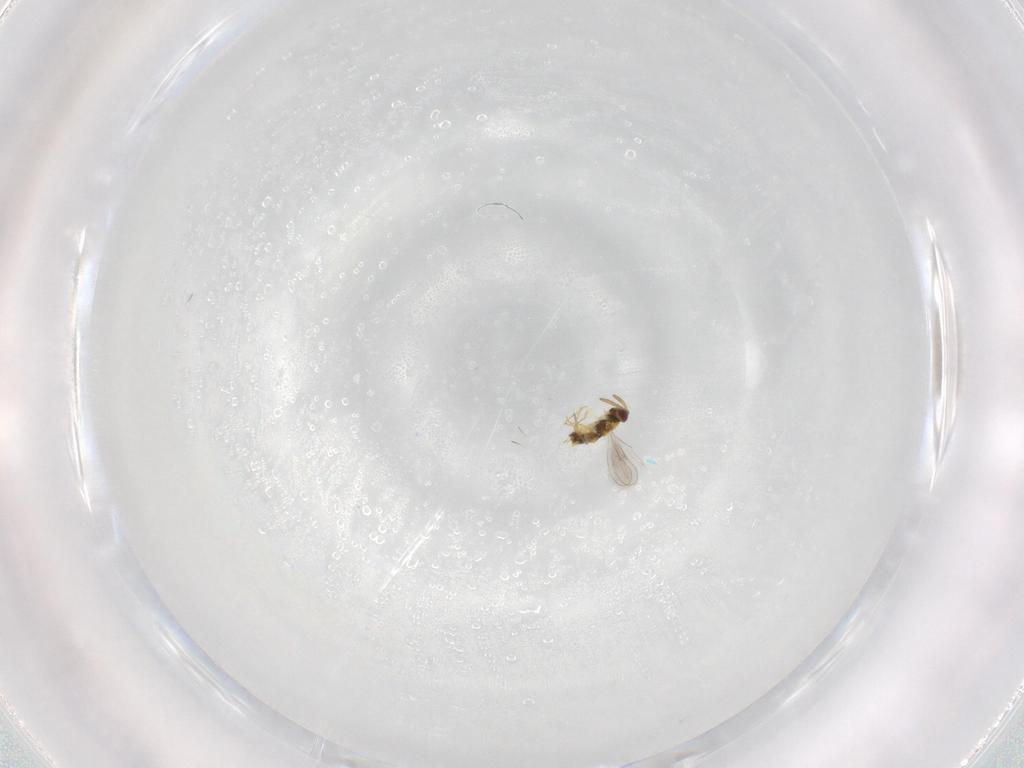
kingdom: Animalia
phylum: Arthropoda
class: Insecta
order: Hymenoptera
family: Aphelinidae
